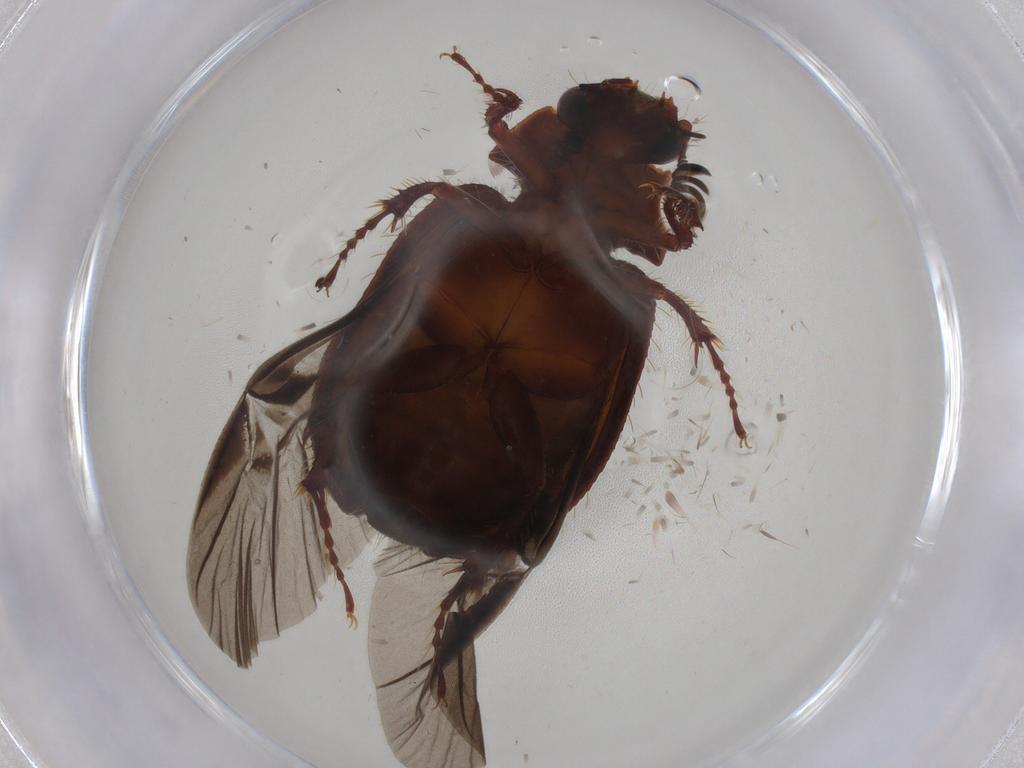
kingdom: Animalia
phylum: Arthropoda
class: Insecta
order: Coleoptera
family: Hybosoridae
